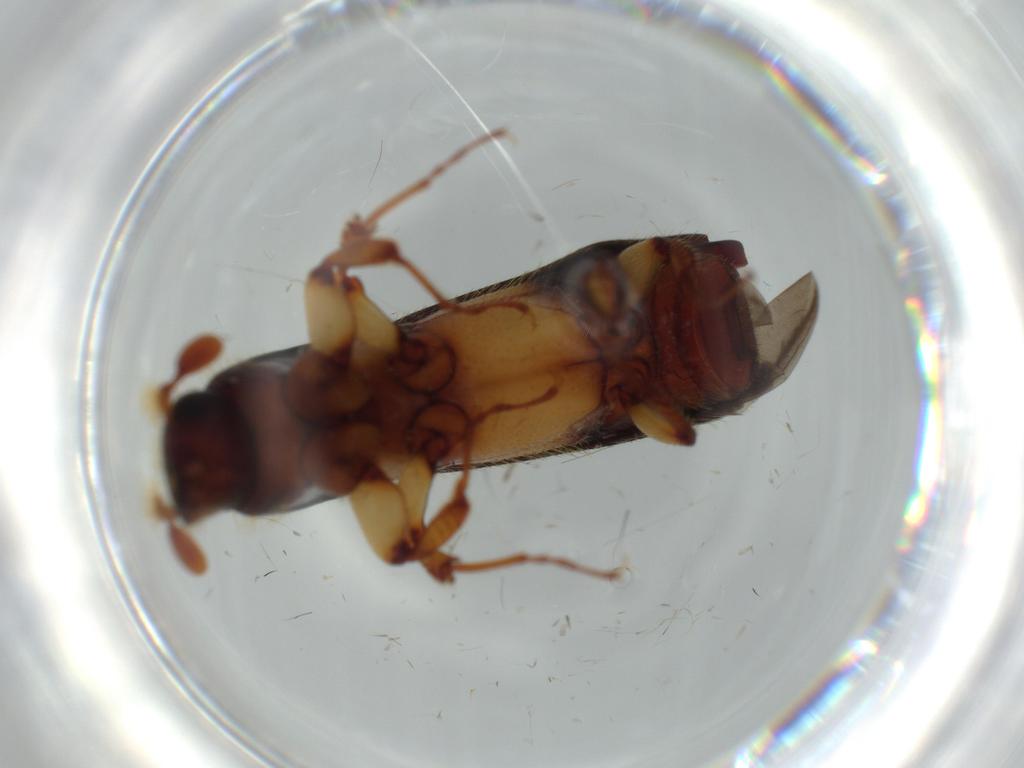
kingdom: Animalia
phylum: Arthropoda
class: Insecta
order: Coleoptera
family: Curculionidae
